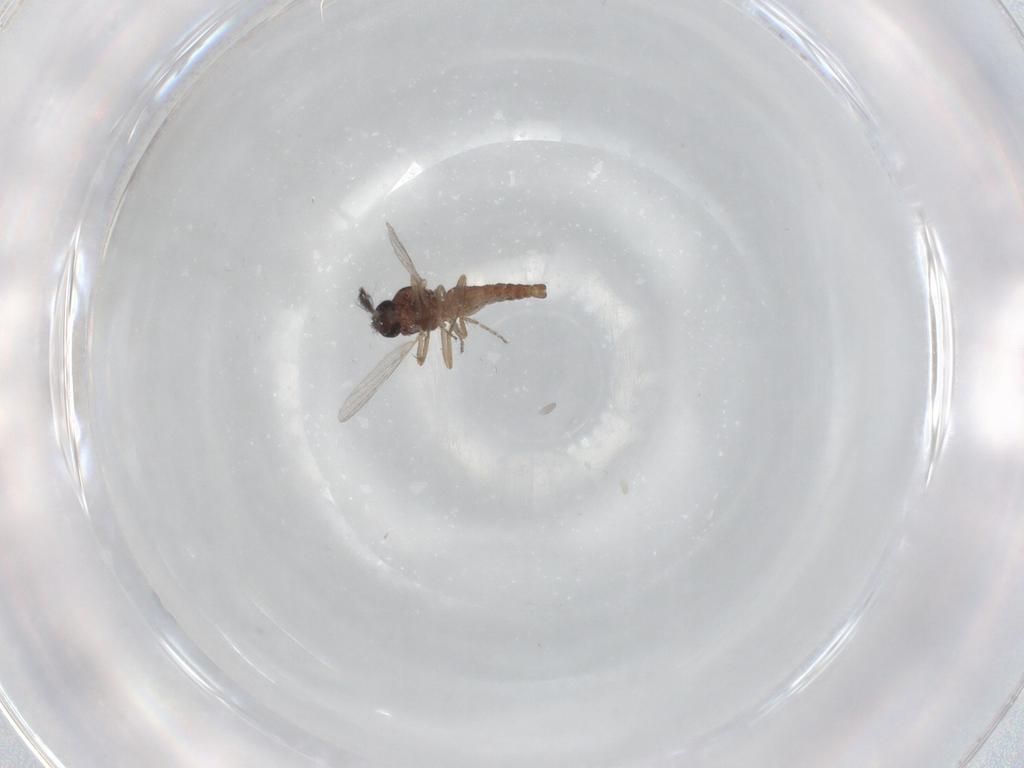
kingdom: Animalia
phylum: Arthropoda
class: Insecta
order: Diptera
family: Ceratopogonidae
